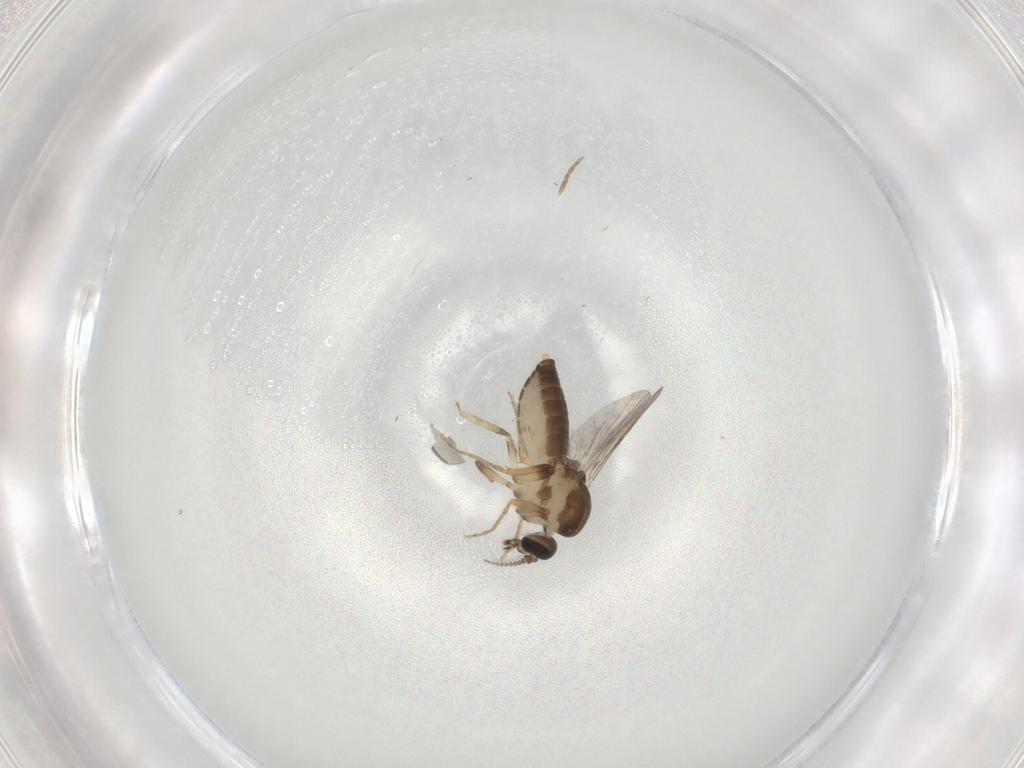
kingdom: Animalia
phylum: Arthropoda
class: Insecta
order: Diptera
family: Ceratopogonidae
